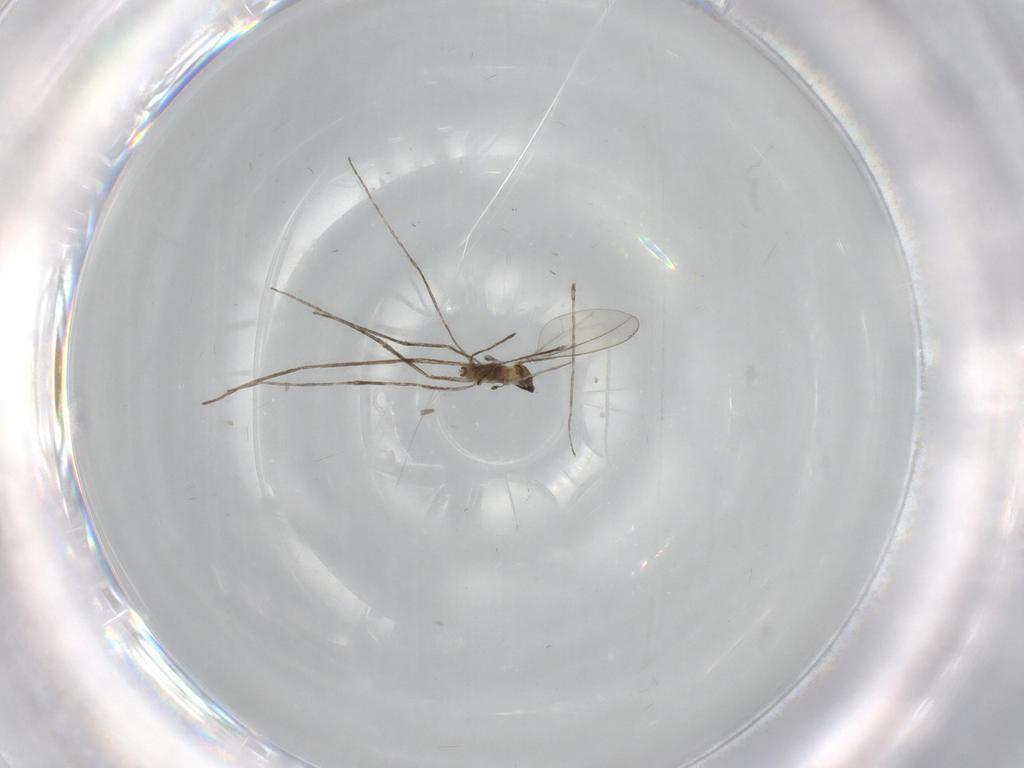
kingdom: Animalia
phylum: Arthropoda
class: Insecta
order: Diptera
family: Cecidomyiidae
